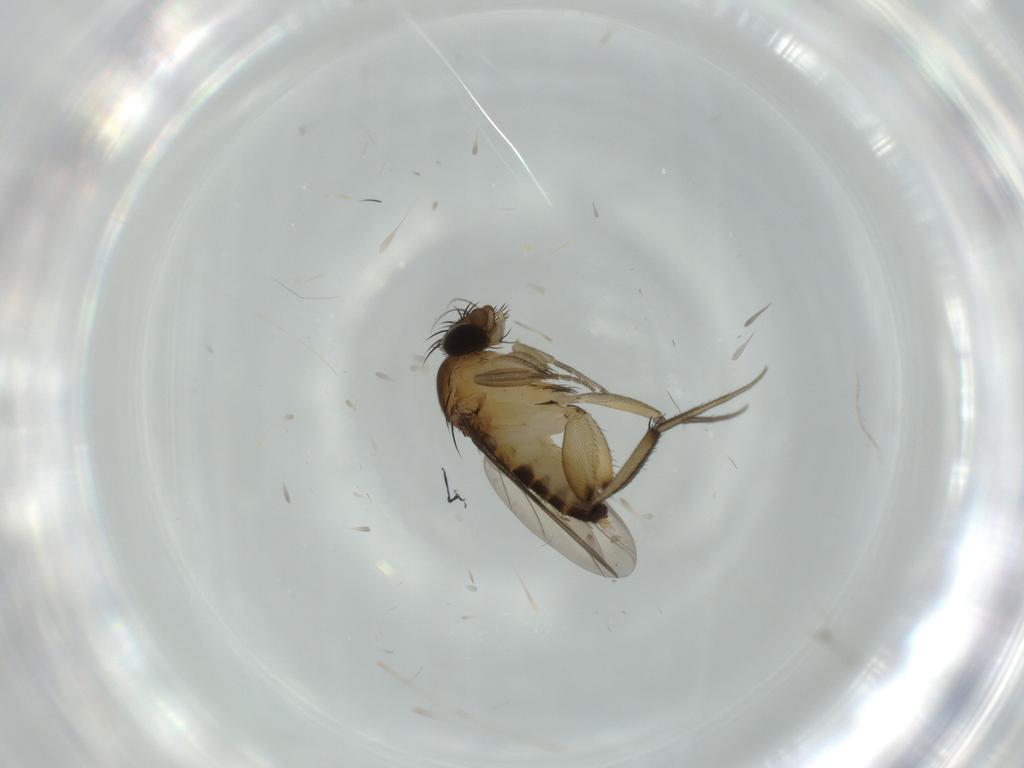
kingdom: Animalia
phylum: Arthropoda
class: Insecta
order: Diptera
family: Phoridae
